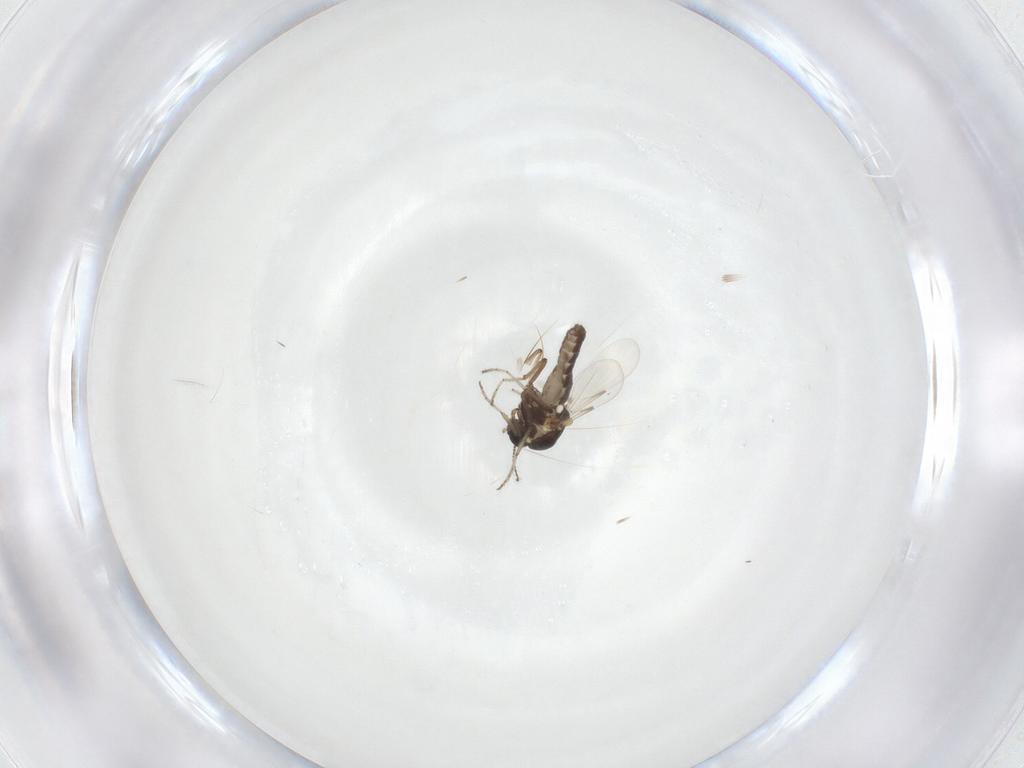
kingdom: Animalia
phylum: Arthropoda
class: Insecta
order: Diptera
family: Ceratopogonidae
